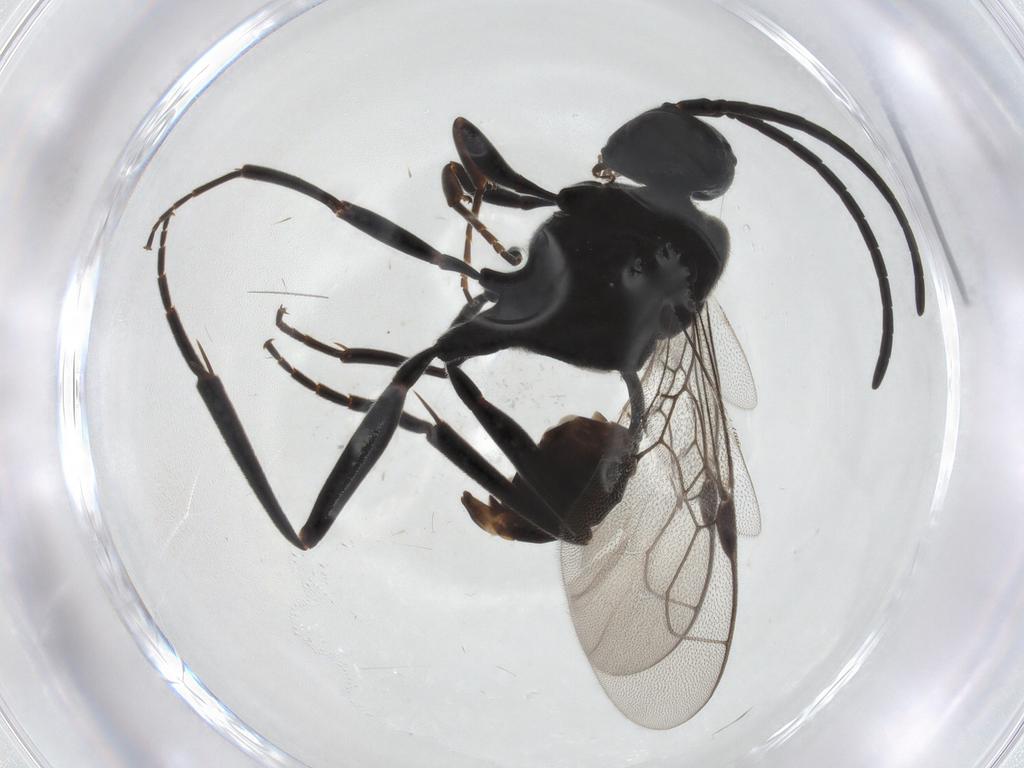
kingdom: Animalia
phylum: Arthropoda
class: Insecta
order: Hymenoptera
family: Evaniidae
